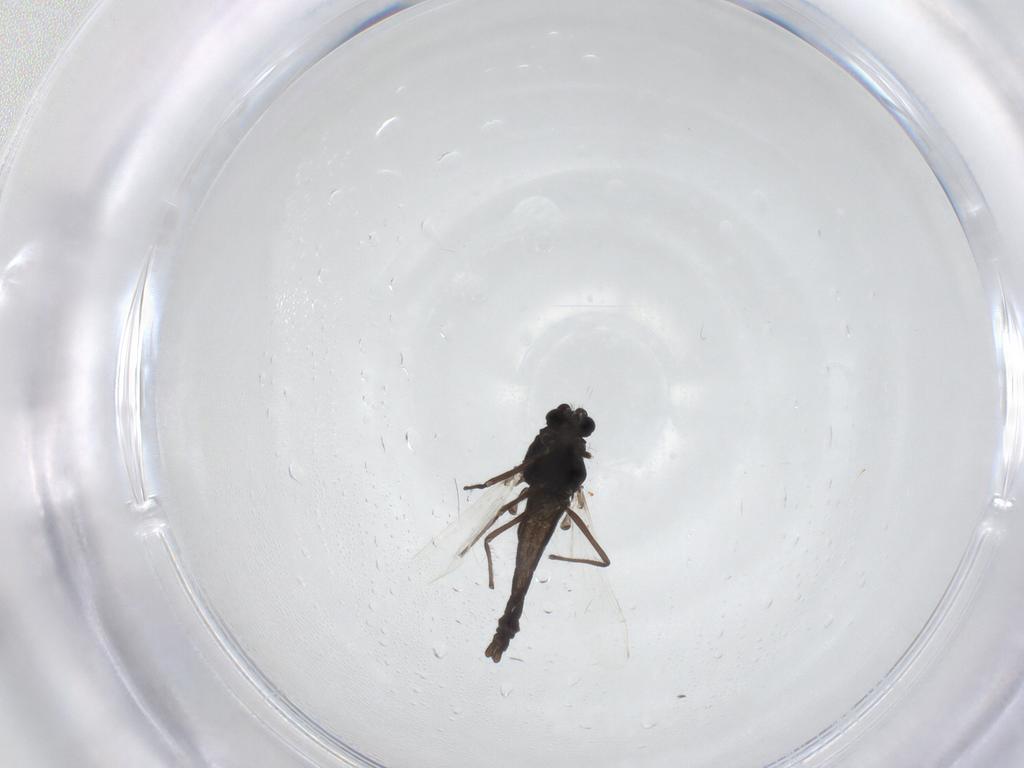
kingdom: Animalia
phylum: Arthropoda
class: Insecta
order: Diptera
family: Chironomidae
